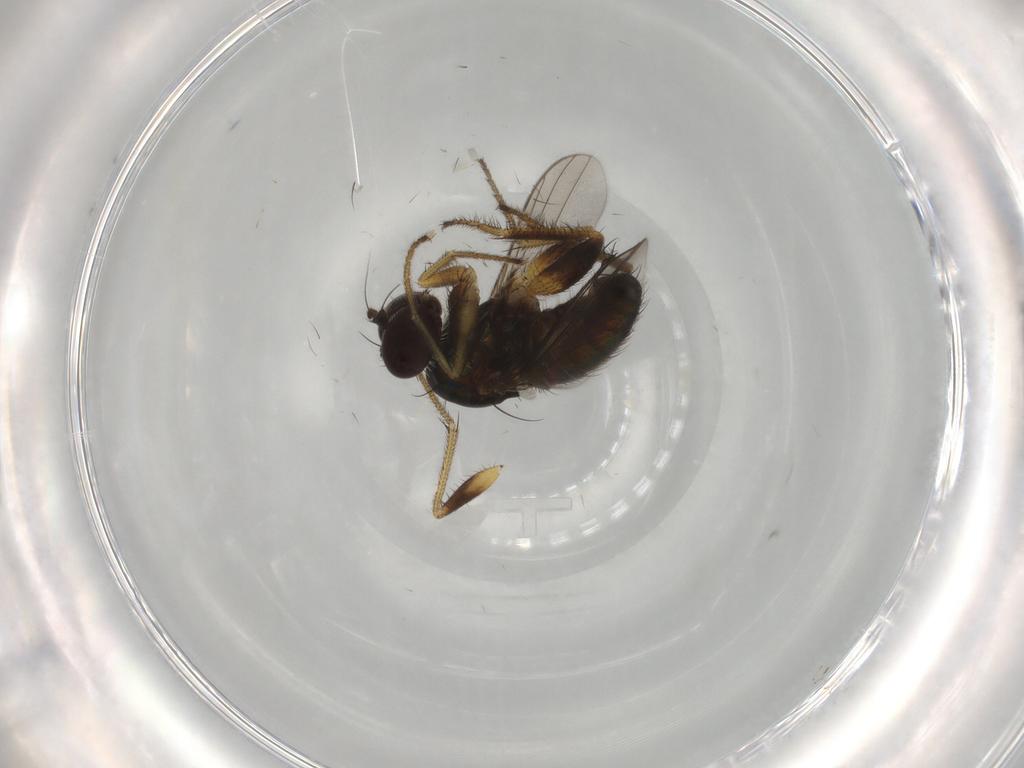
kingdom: Animalia
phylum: Arthropoda
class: Insecta
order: Diptera
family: Dolichopodidae
